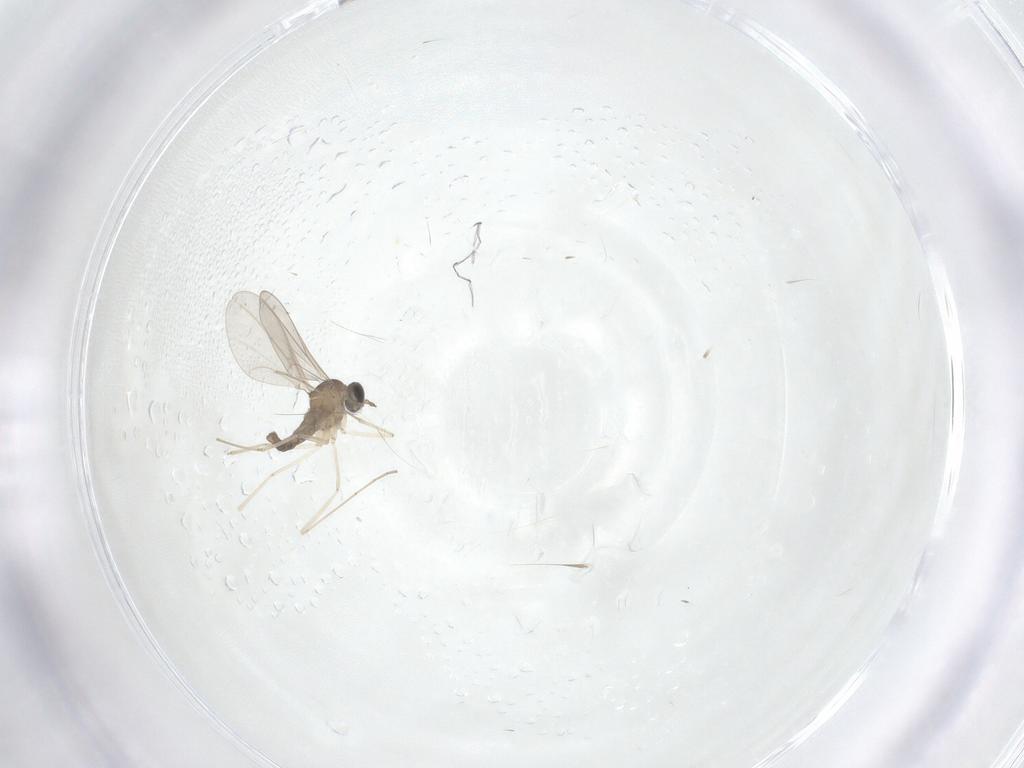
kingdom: Animalia
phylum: Arthropoda
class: Insecta
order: Diptera
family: Cecidomyiidae
